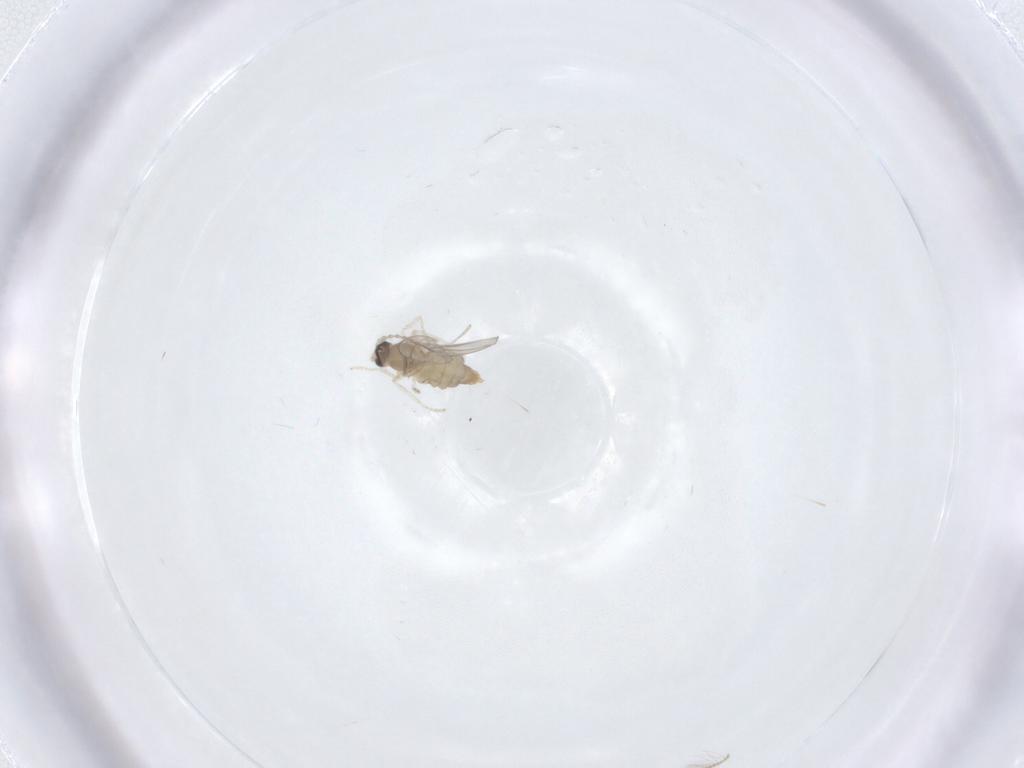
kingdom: Animalia
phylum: Arthropoda
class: Insecta
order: Diptera
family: Cecidomyiidae
